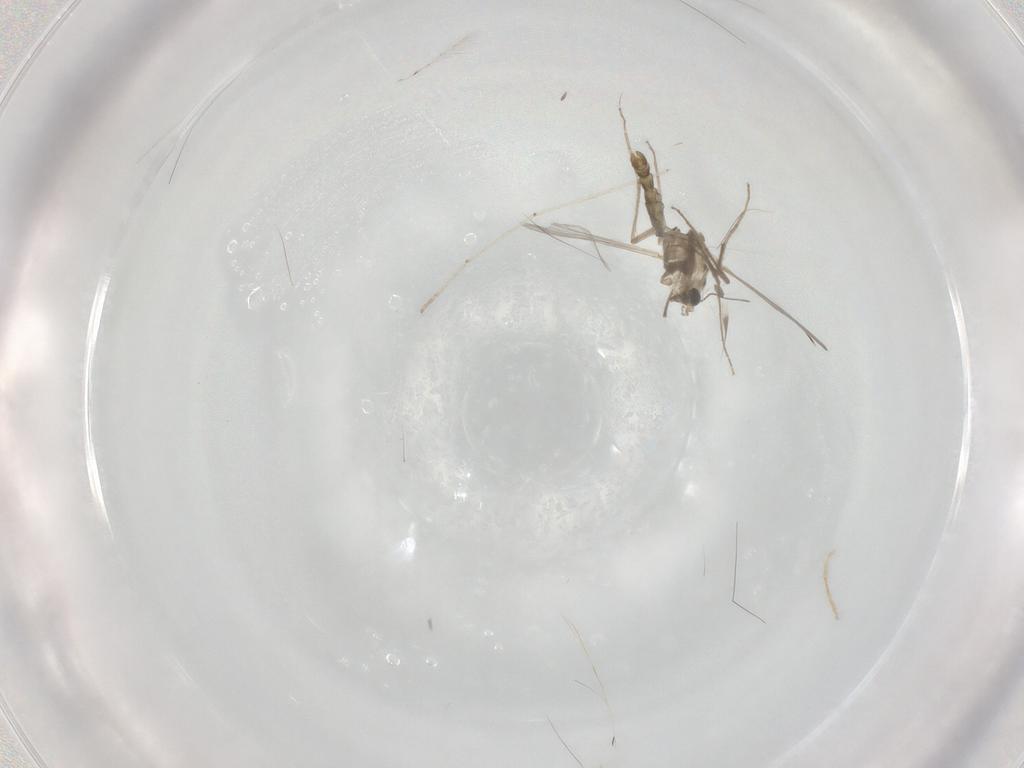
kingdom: Animalia
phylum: Arthropoda
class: Insecta
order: Diptera
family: Chironomidae
